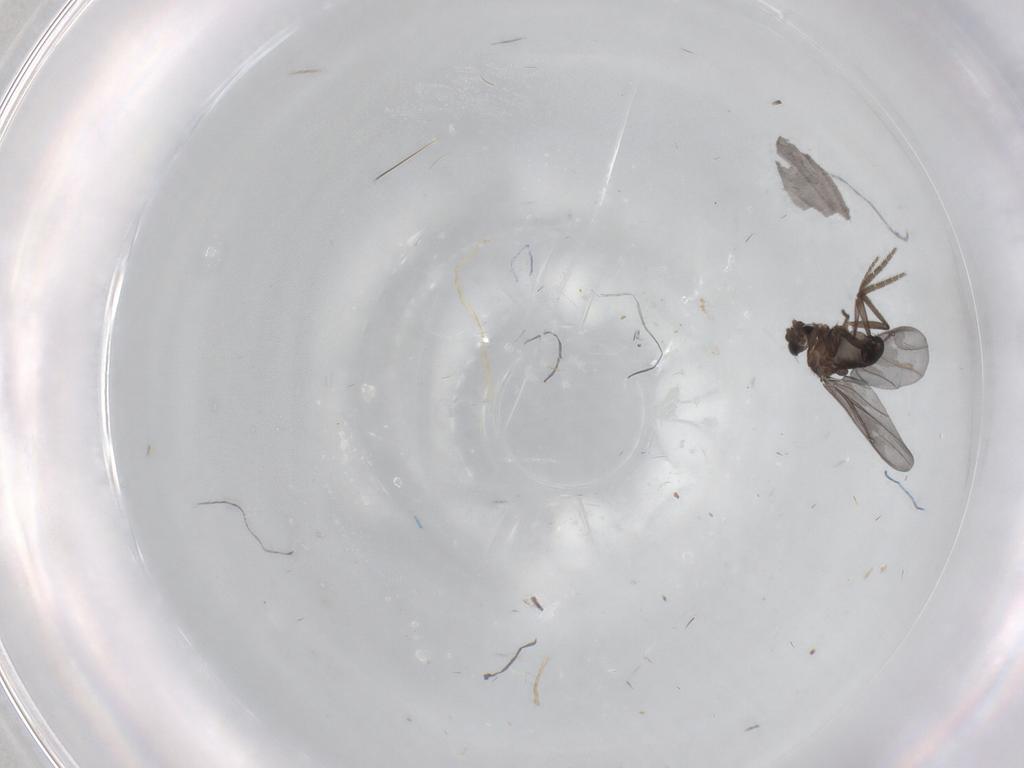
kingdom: Animalia
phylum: Arthropoda
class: Insecta
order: Diptera
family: Phoridae
